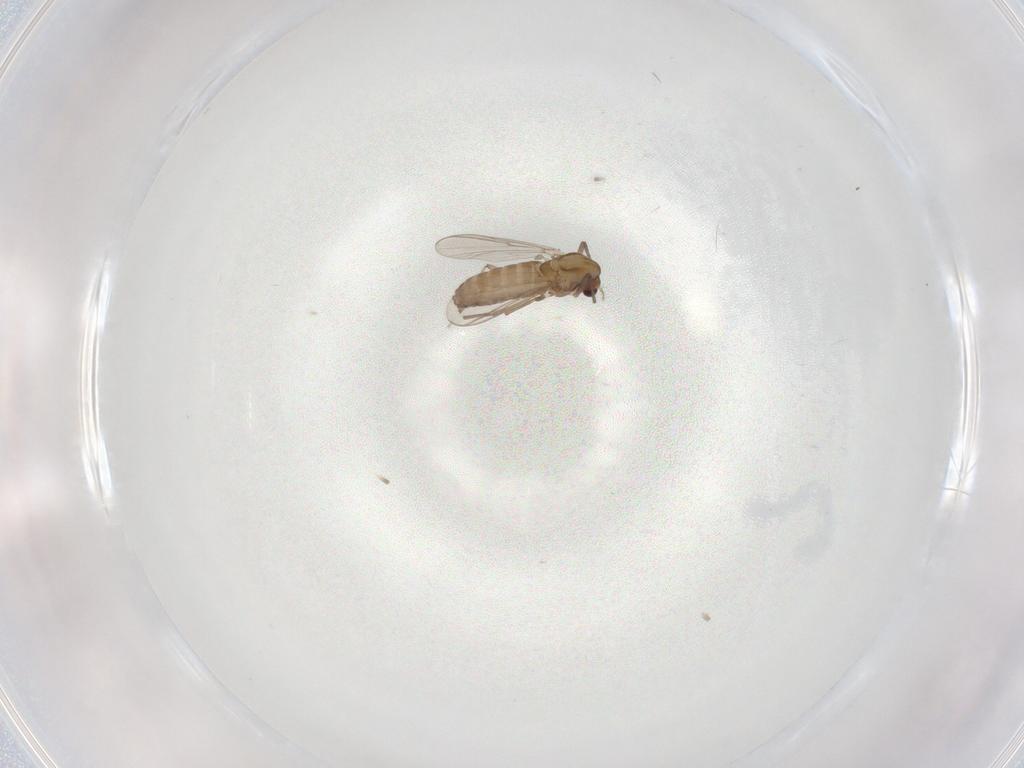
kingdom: Animalia
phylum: Arthropoda
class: Insecta
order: Diptera
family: Chironomidae
